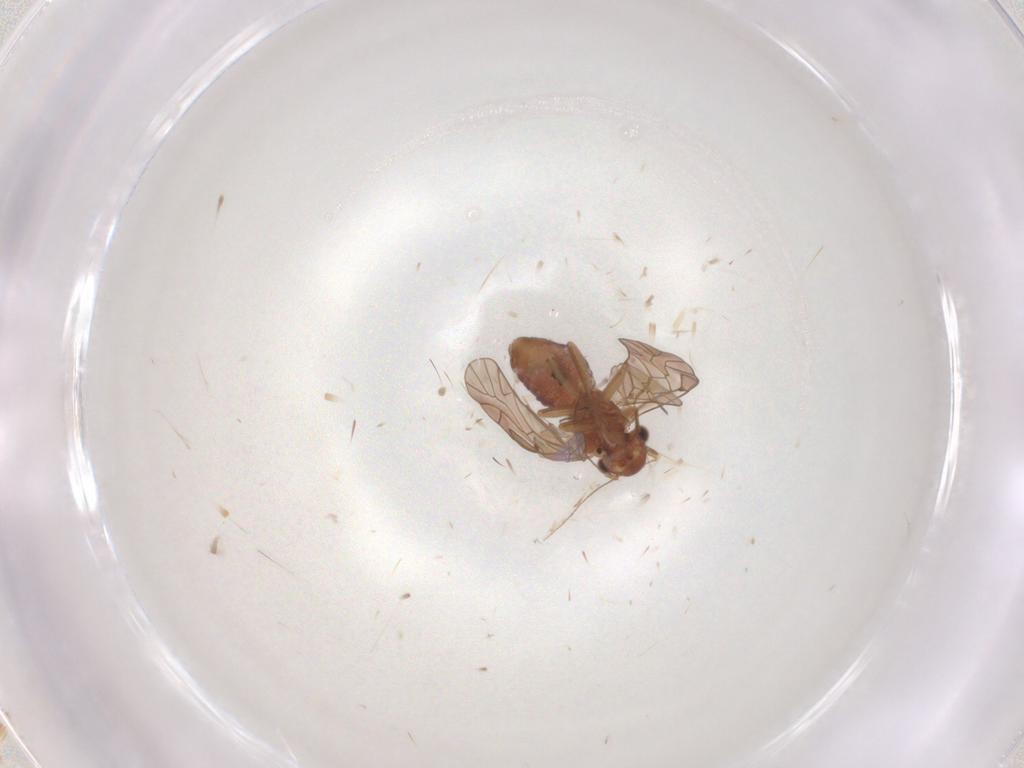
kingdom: Animalia
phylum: Arthropoda
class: Insecta
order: Psocodea
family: Lachesillidae
